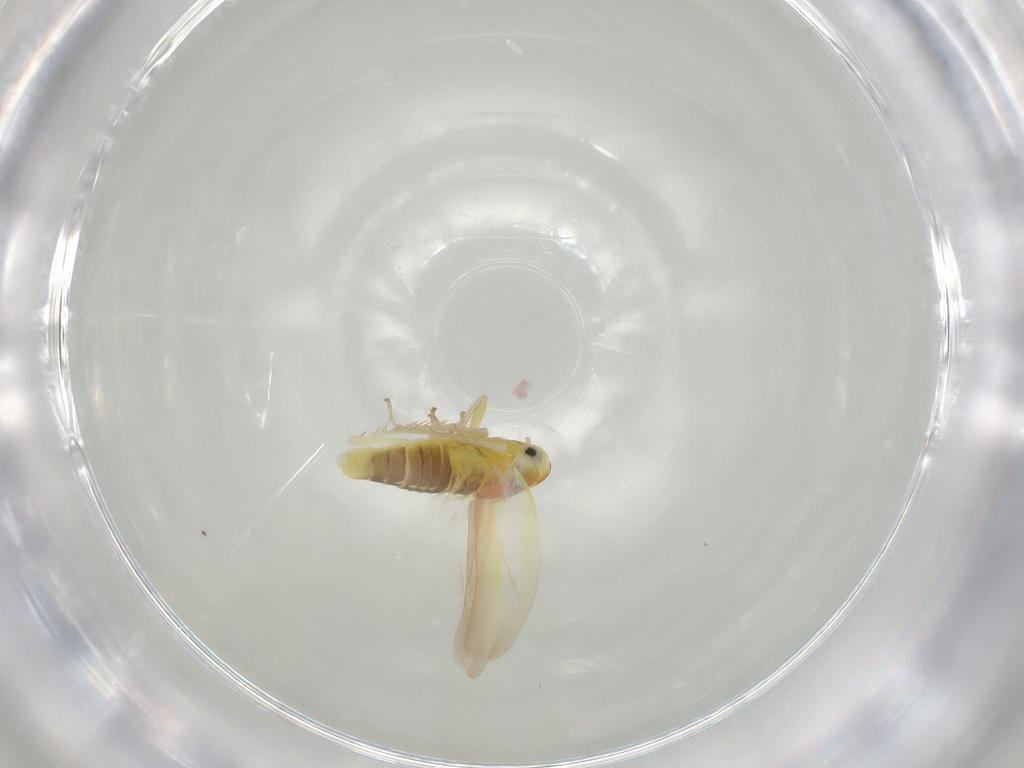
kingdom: Animalia
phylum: Arthropoda
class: Insecta
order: Hemiptera
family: Cicadellidae
